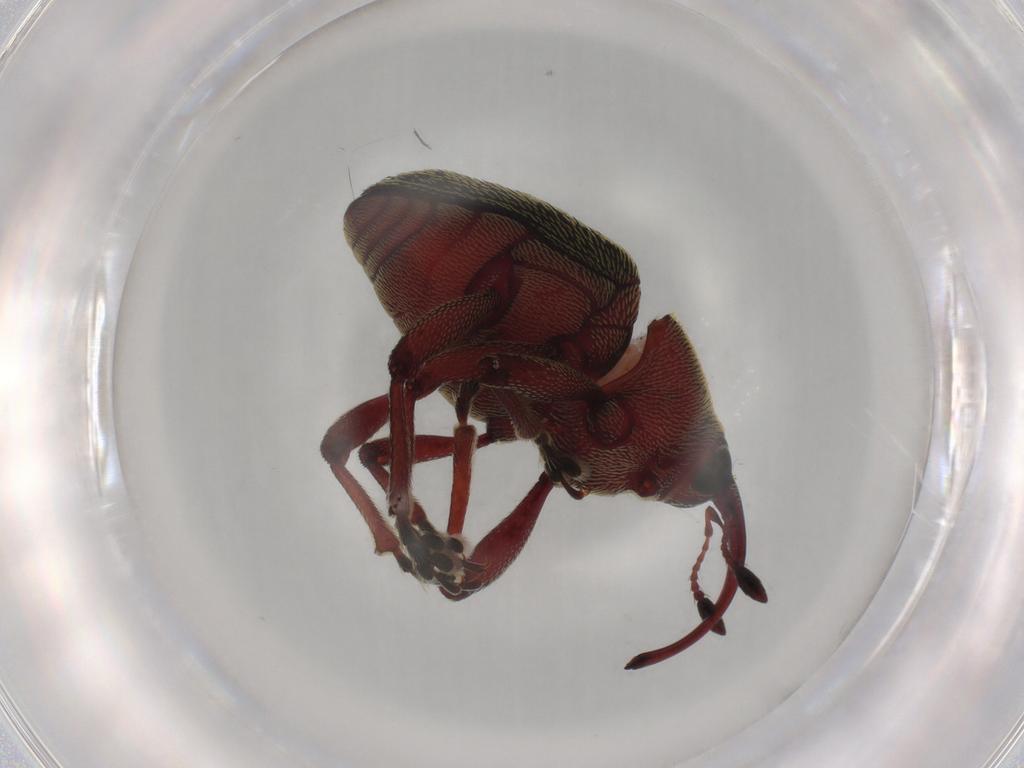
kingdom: Animalia
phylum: Arthropoda
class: Insecta
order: Coleoptera
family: Curculionidae
